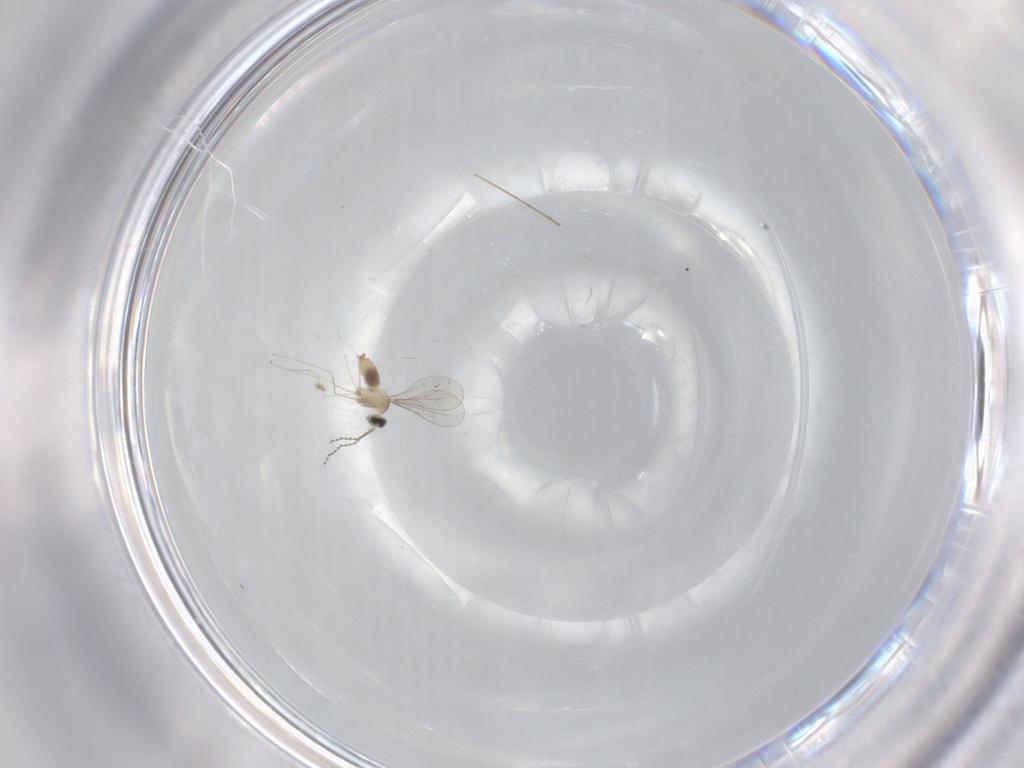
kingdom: Animalia
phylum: Arthropoda
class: Insecta
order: Diptera
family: Cecidomyiidae
